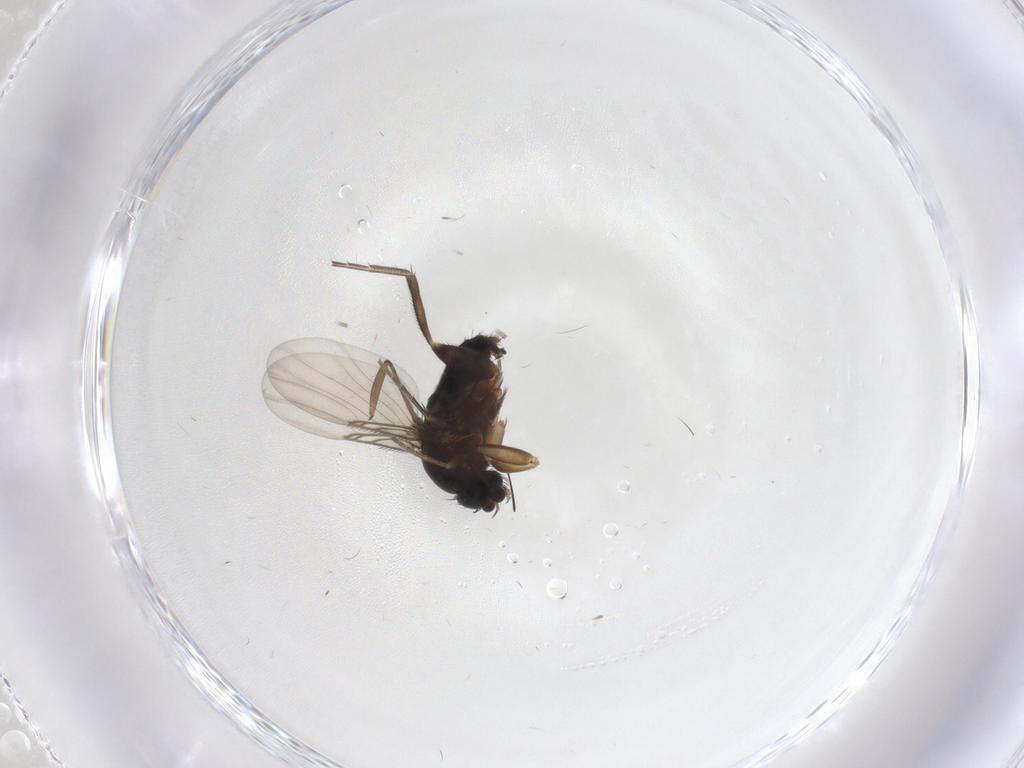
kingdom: Animalia
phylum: Arthropoda
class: Insecta
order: Diptera
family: Phoridae
